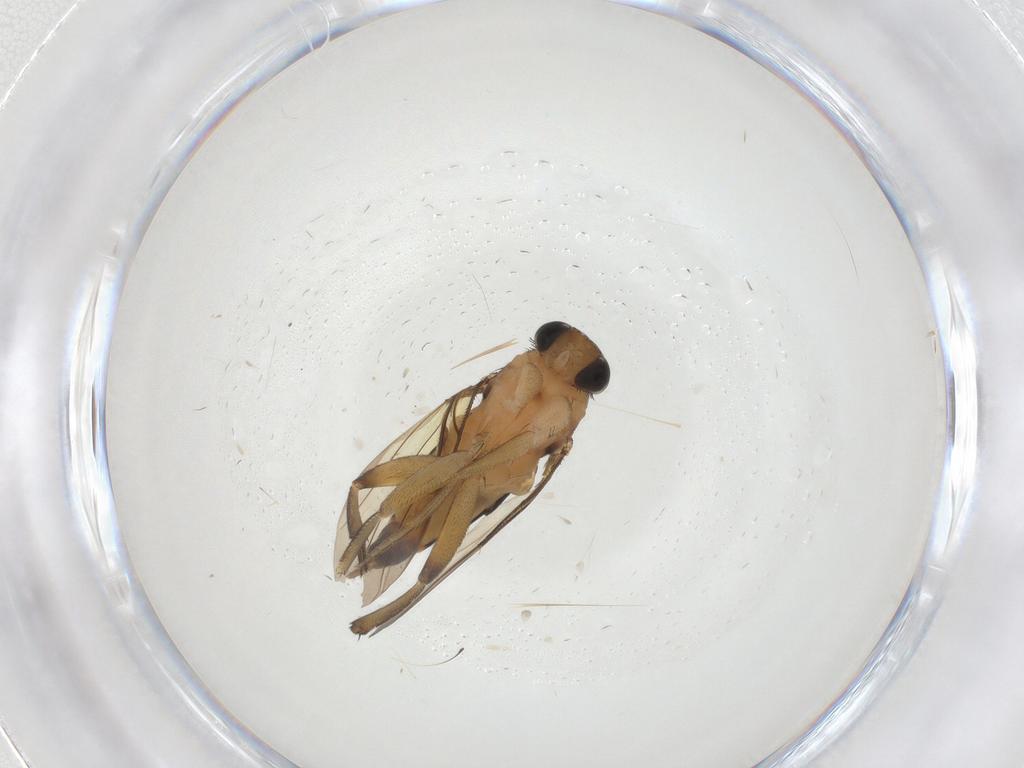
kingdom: Animalia
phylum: Arthropoda
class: Insecta
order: Diptera
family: Phoridae
